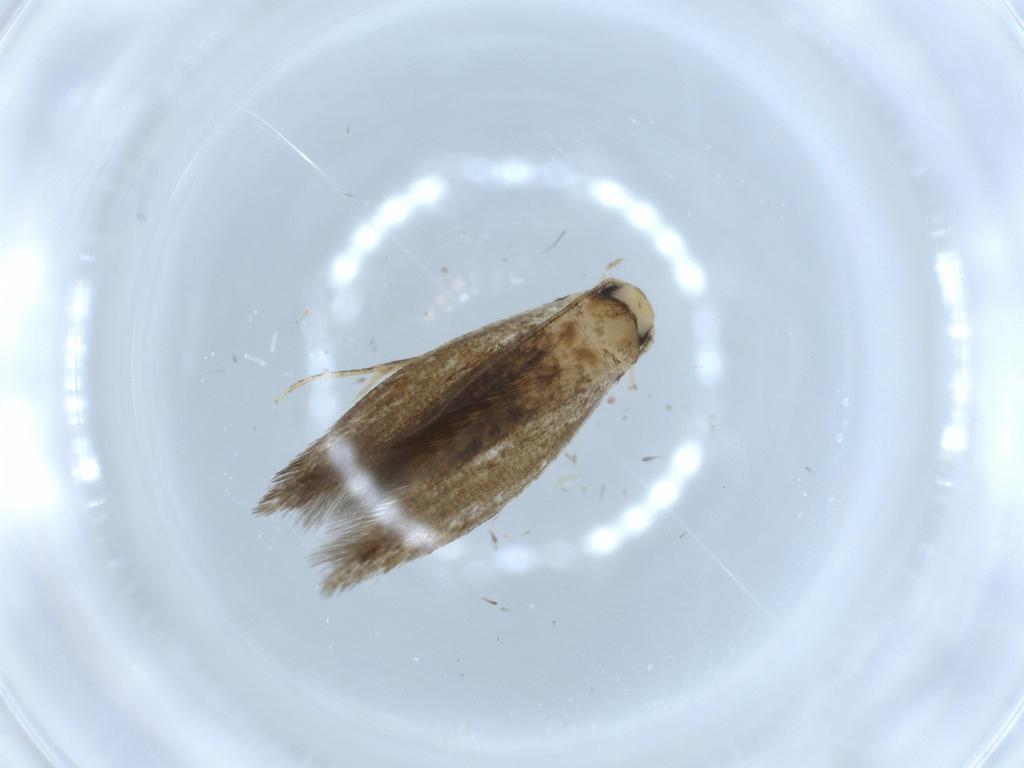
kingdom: Animalia
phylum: Arthropoda
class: Insecta
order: Lepidoptera
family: Tineidae
